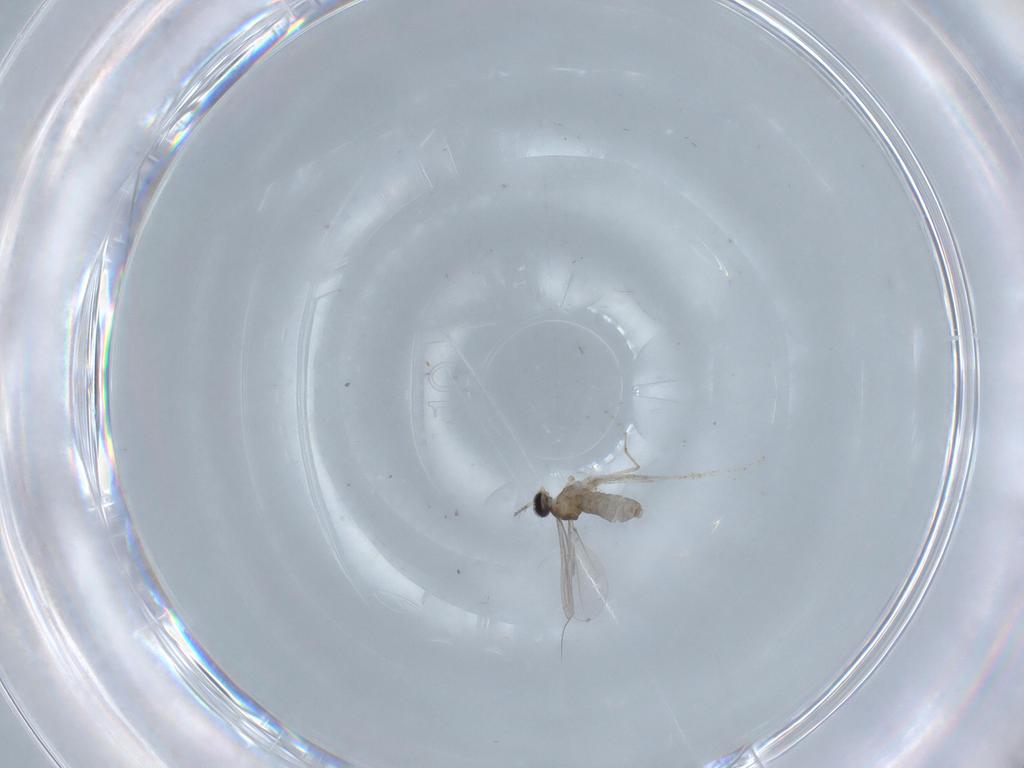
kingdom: Animalia
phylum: Arthropoda
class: Insecta
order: Diptera
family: Cecidomyiidae
